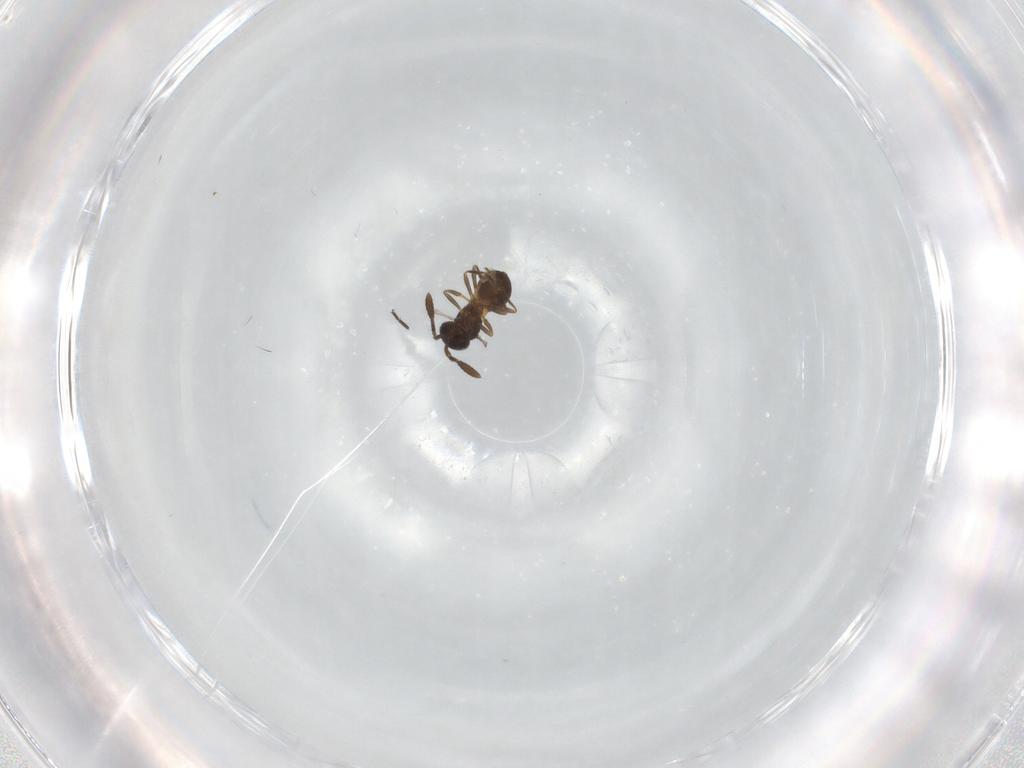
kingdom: Animalia
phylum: Arthropoda
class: Insecta
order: Hymenoptera
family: Scelionidae
